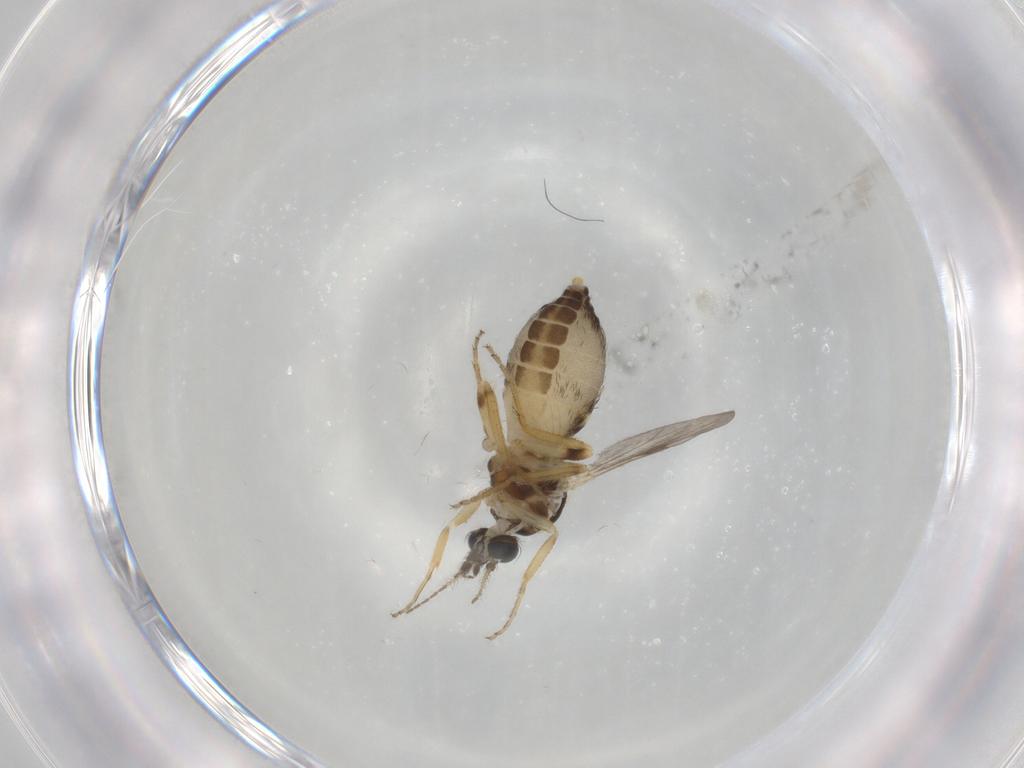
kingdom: Animalia
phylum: Arthropoda
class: Insecta
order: Diptera
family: Ceratopogonidae
